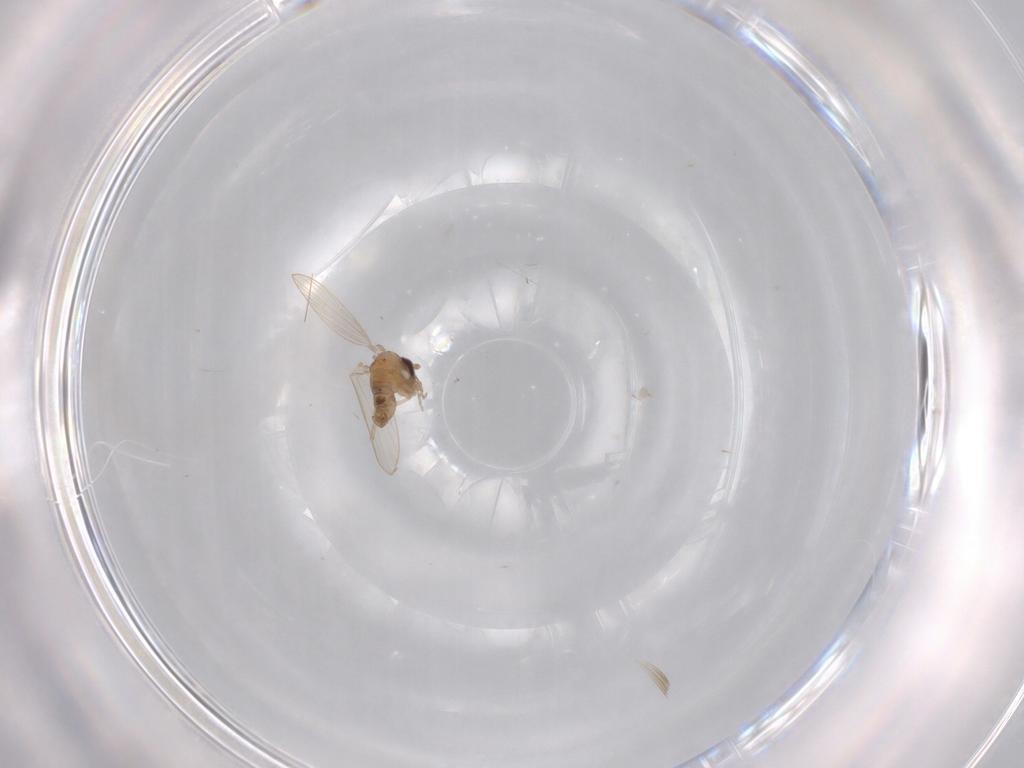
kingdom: Animalia
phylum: Arthropoda
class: Insecta
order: Diptera
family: Psychodidae
